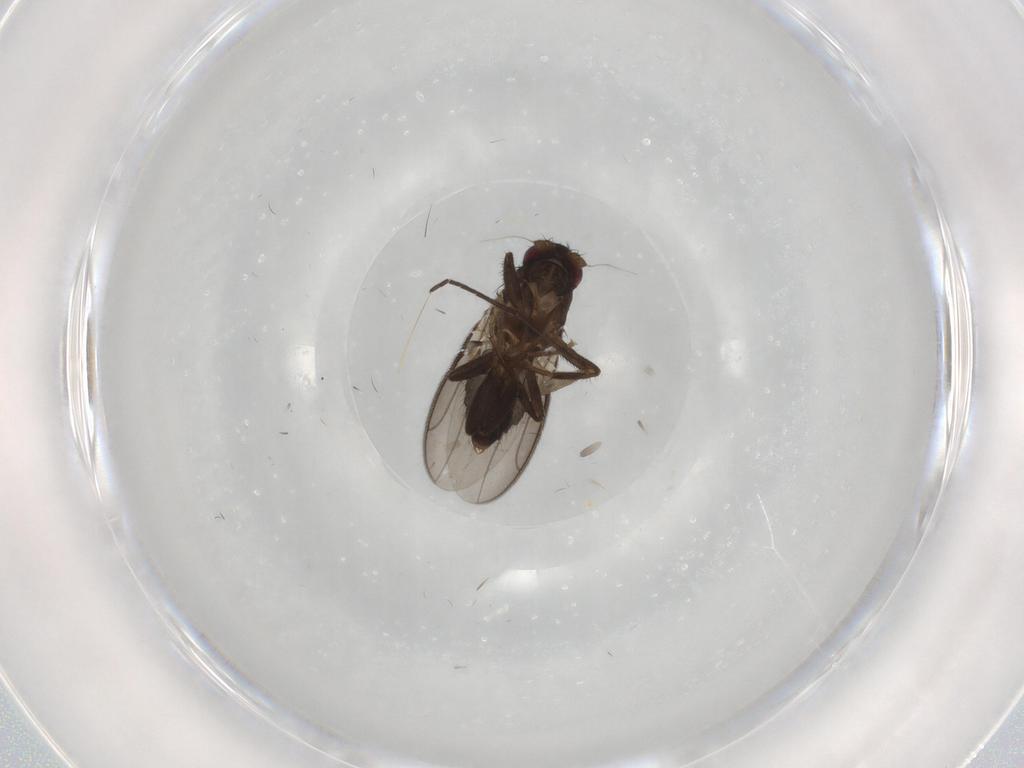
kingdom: Animalia
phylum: Arthropoda
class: Insecta
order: Diptera
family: Sphaeroceridae
